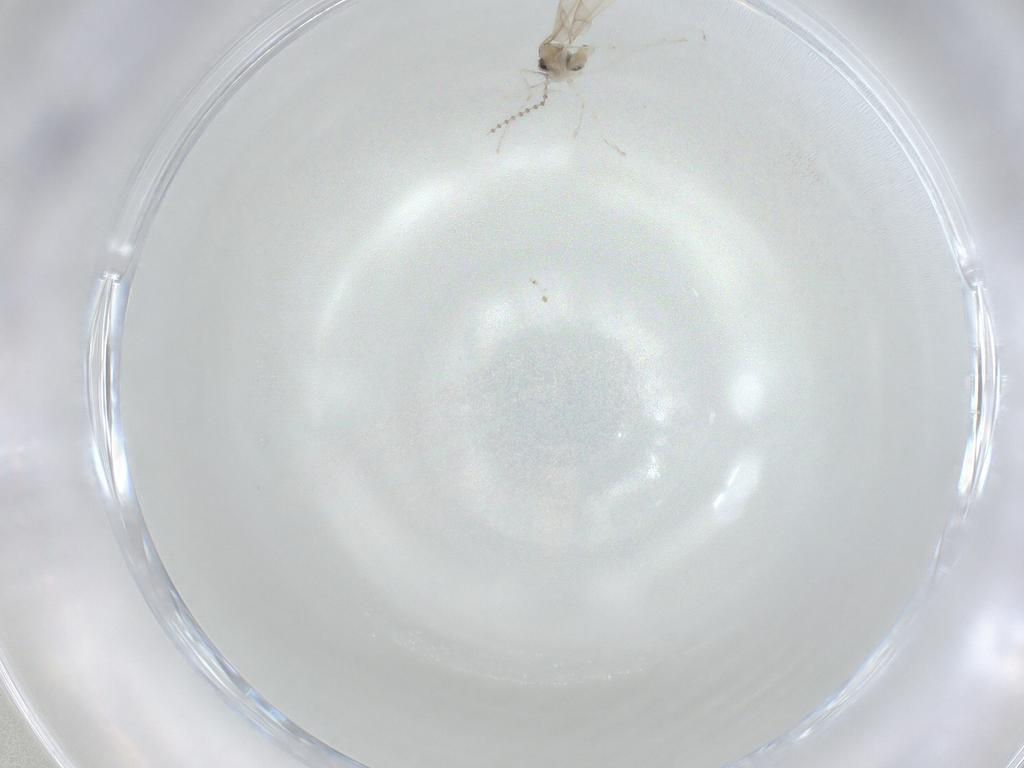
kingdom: Animalia
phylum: Arthropoda
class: Insecta
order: Diptera
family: Cecidomyiidae
